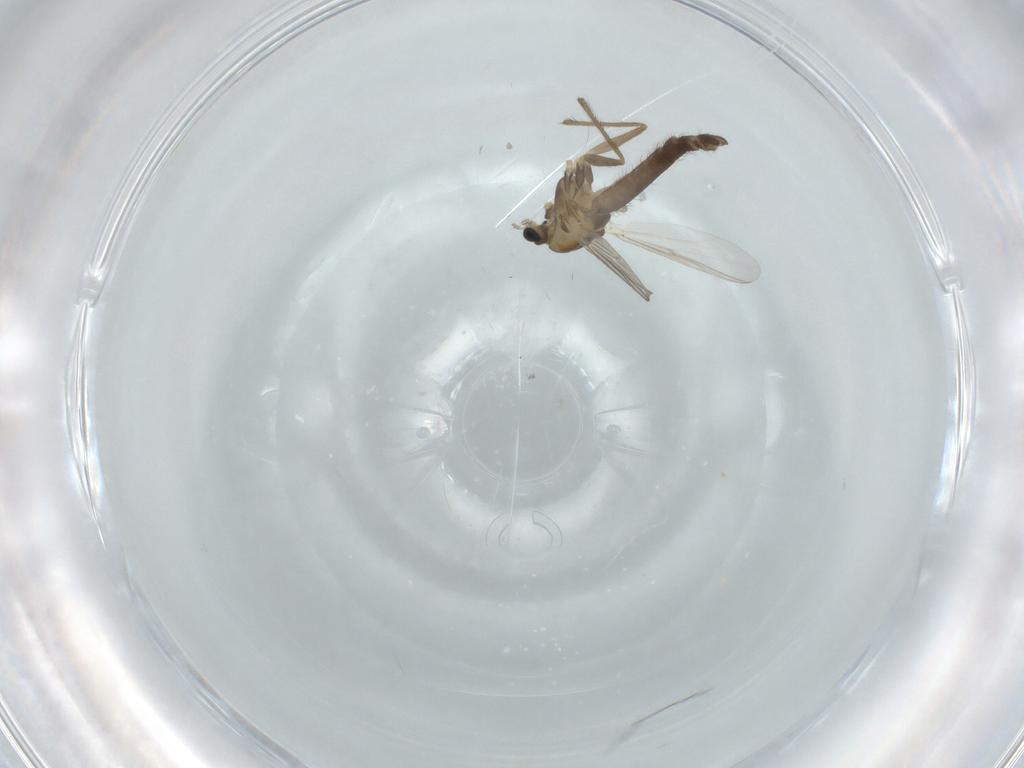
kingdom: Animalia
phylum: Arthropoda
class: Insecta
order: Diptera
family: Chironomidae
